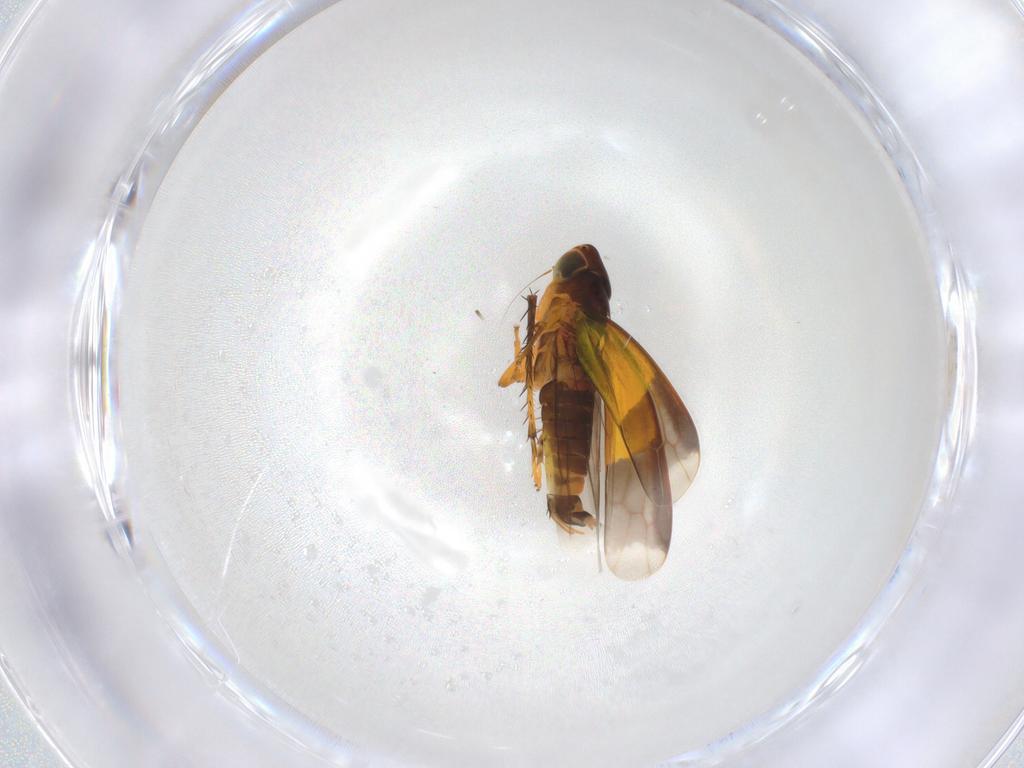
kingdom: Animalia
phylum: Arthropoda
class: Insecta
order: Hemiptera
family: Cicadellidae
